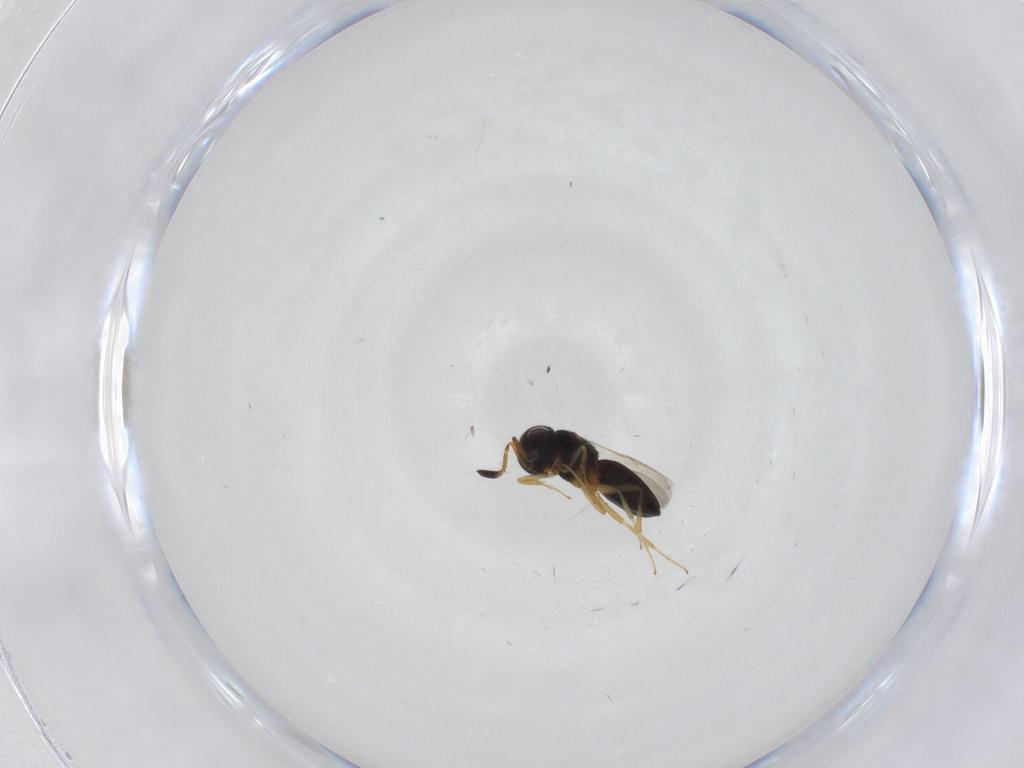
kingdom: Animalia
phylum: Arthropoda
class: Insecta
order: Hymenoptera
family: Scelionidae
